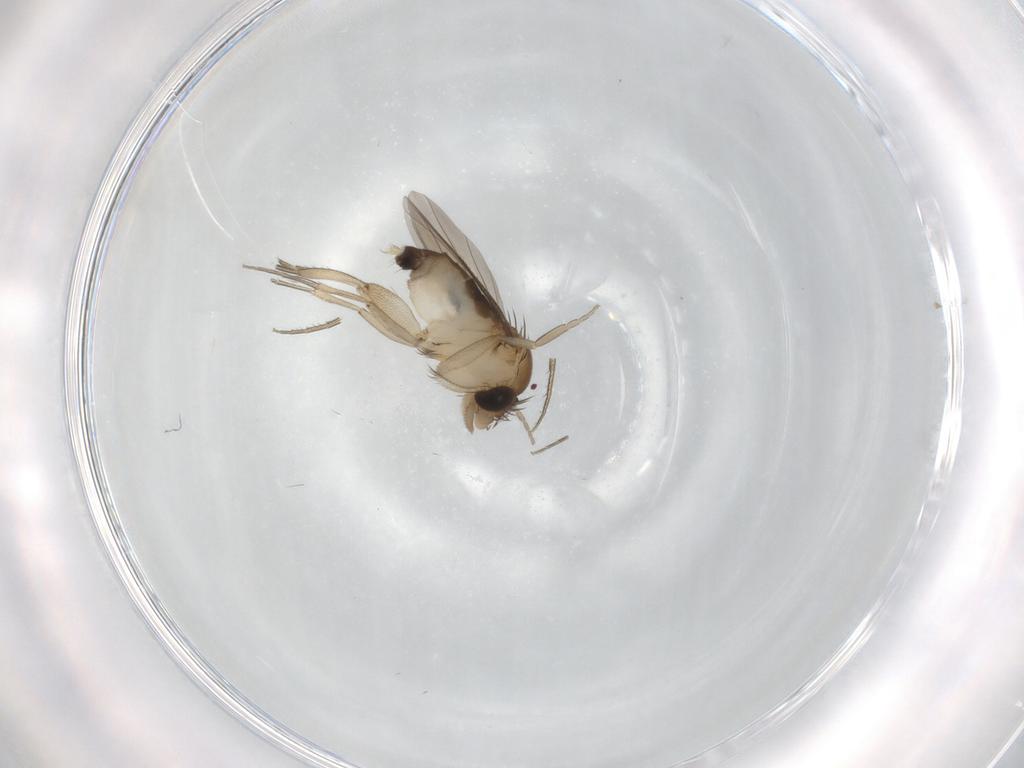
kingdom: Animalia
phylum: Arthropoda
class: Insecta
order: Diptera
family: Phoridae
